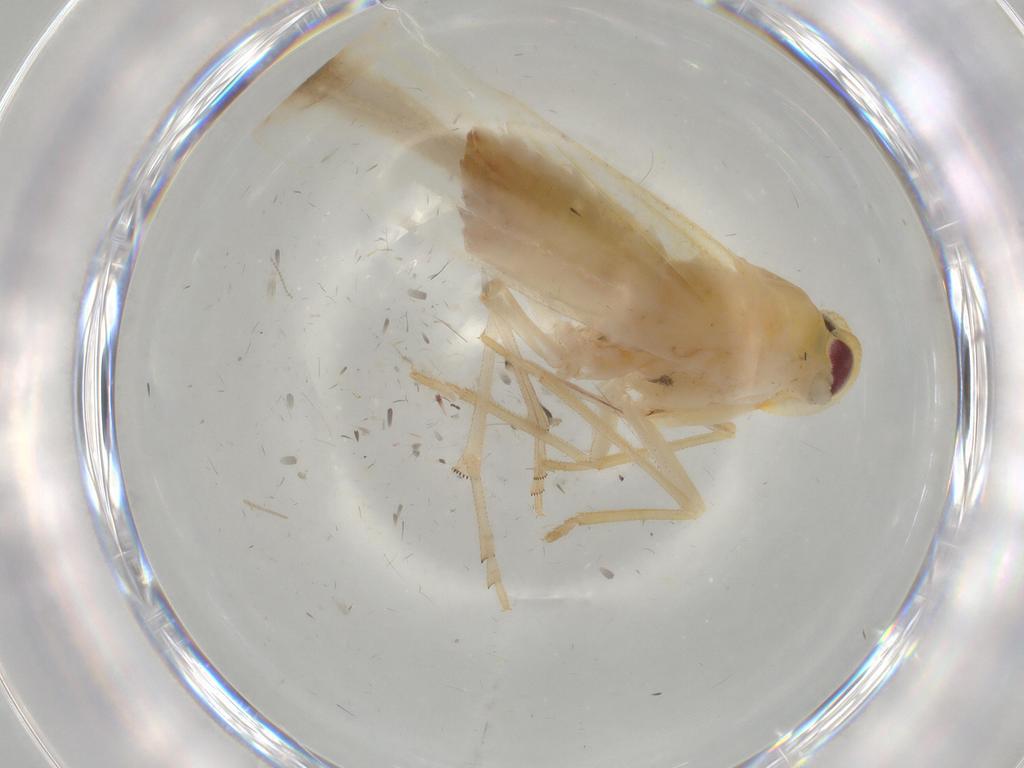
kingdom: Animalia
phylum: Arthropoda
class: Insecta
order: Hemiptera
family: Derbidae
